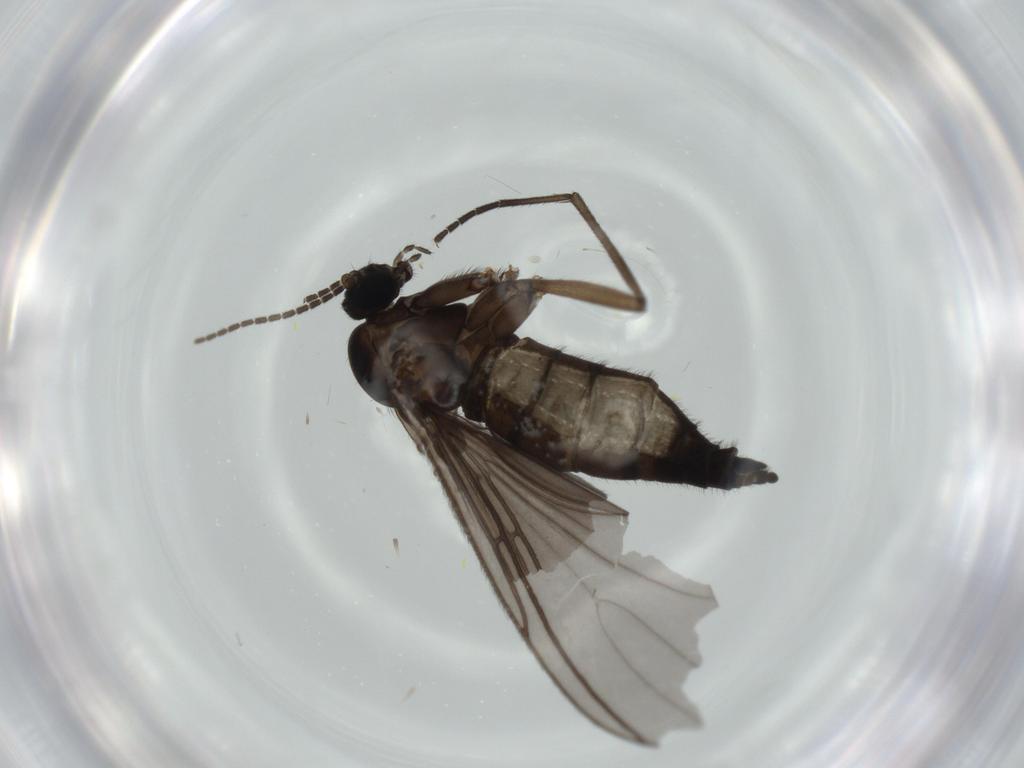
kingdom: Animalia
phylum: Arthropoda
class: Insecta
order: Diptera
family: Sciaridae
